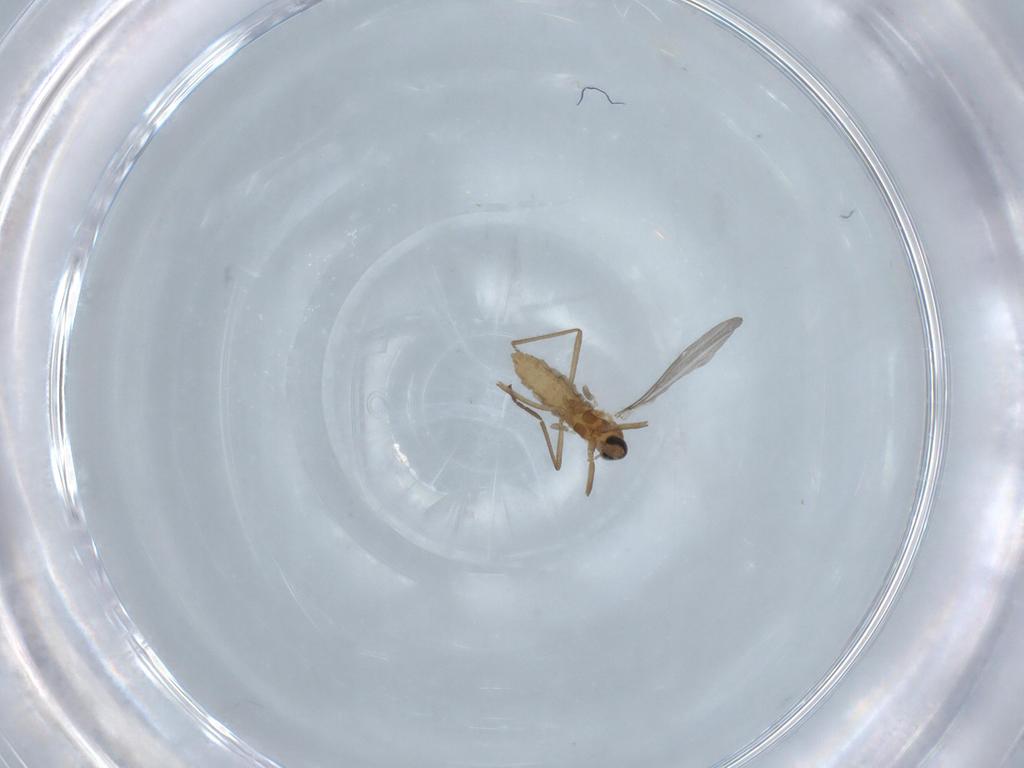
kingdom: Animalia
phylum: Arthropoda
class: Insecta
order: Diptera
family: Cecidomyiidae
